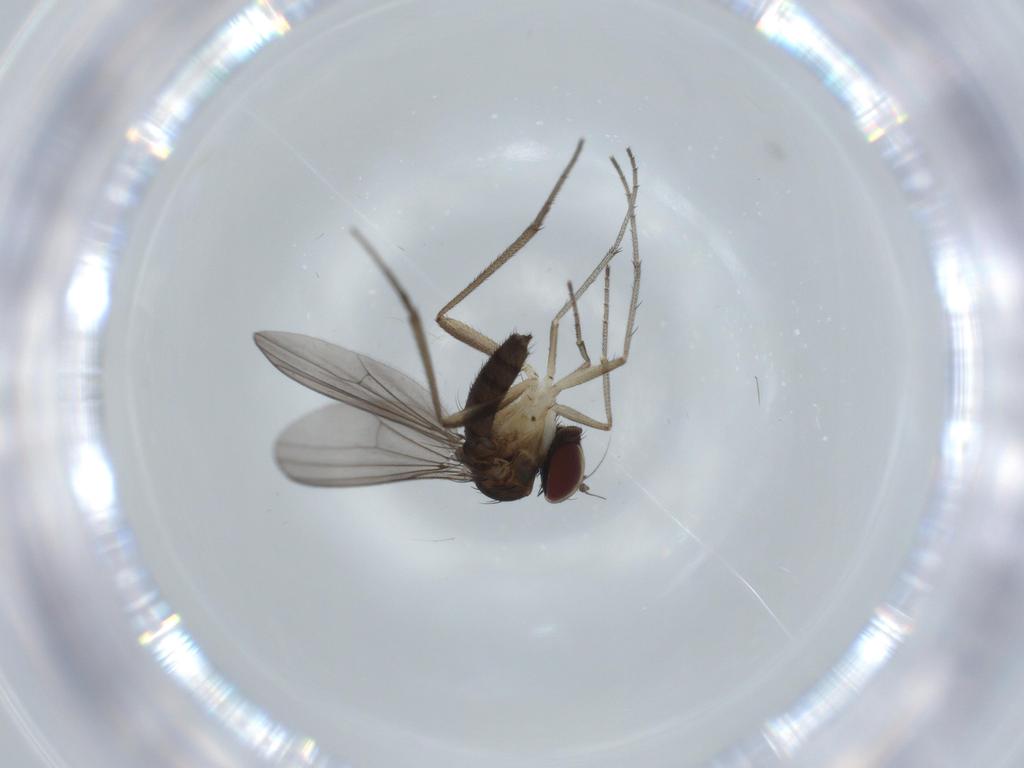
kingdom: Animalia
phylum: Arthropoda
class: Insecta
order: Diptera
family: Dolichopodidae
